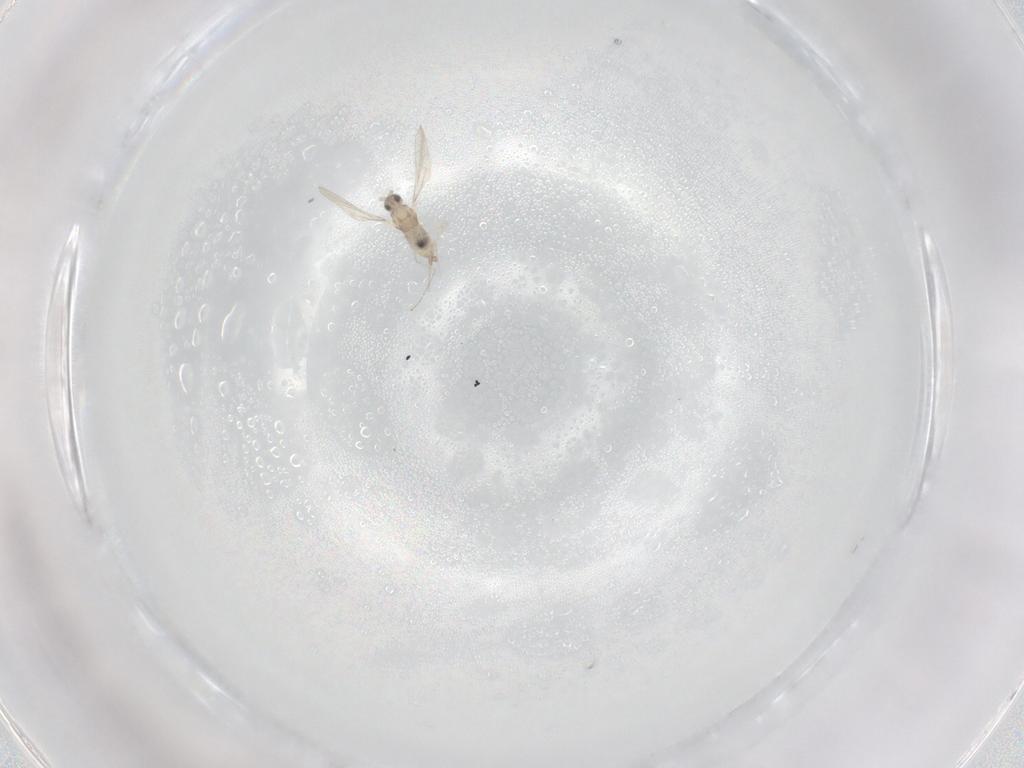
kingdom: Animalia
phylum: Arthropoda
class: Insecta
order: Diptera
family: Cecidomyiidae
